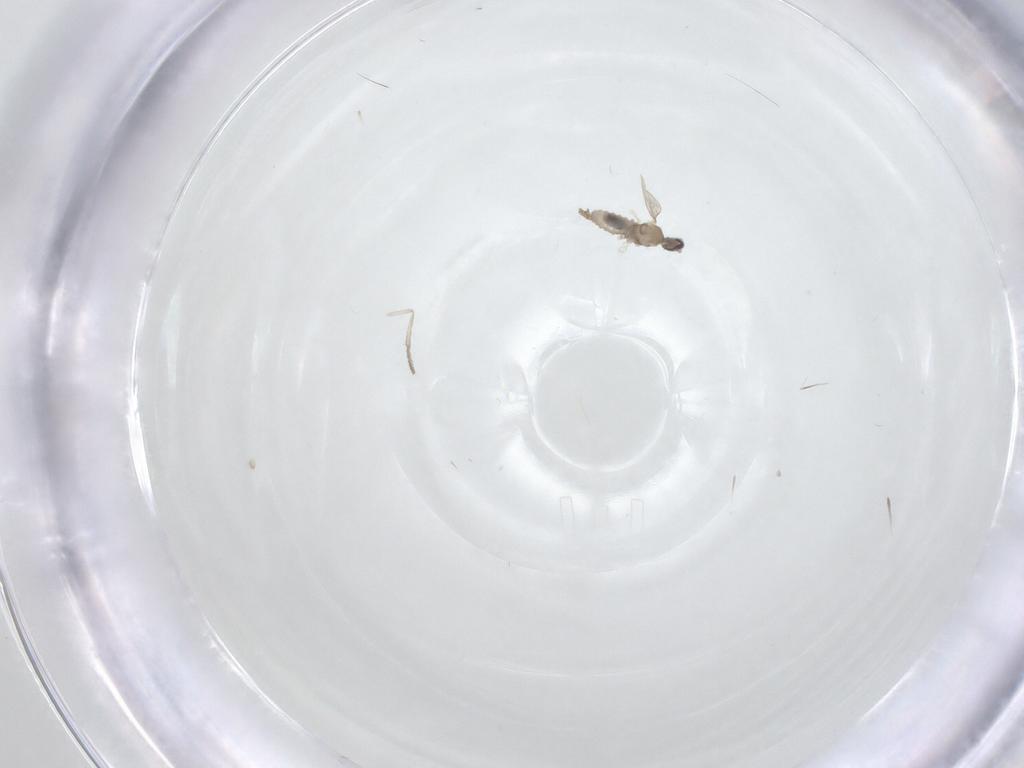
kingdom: Animalia
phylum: Arthropoda
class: Insecta
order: Diptera
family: Cecidomyiidae
